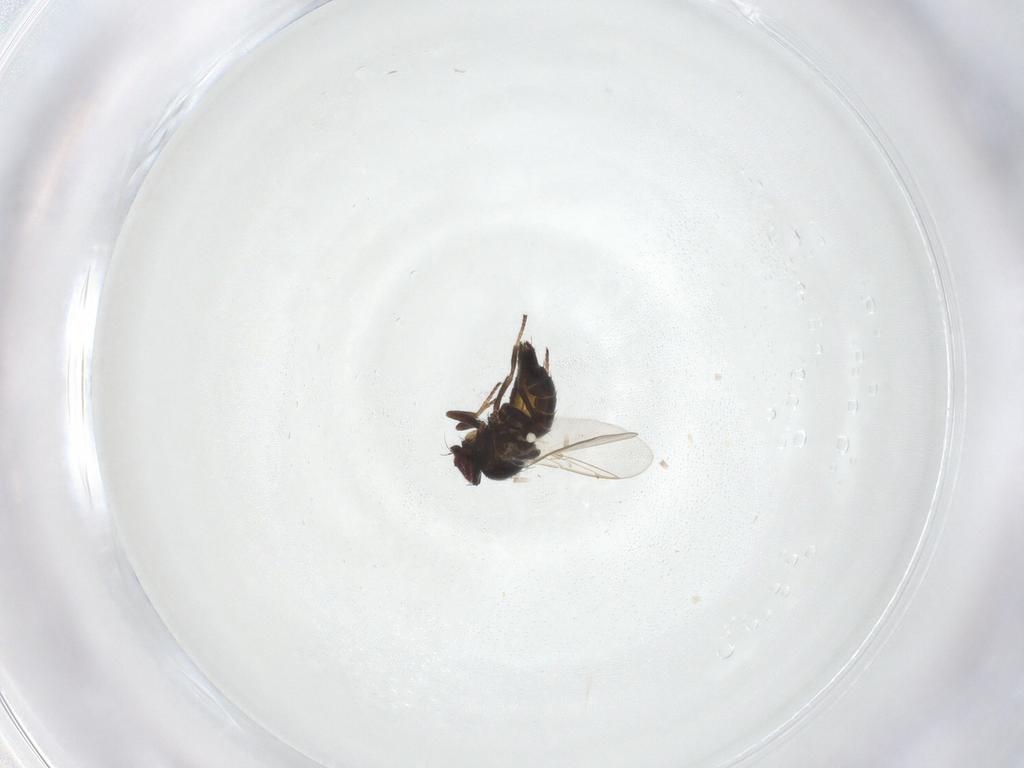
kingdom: Animalia
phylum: Arthropoda
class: Insecta
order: Diptera
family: Agromyzidae
